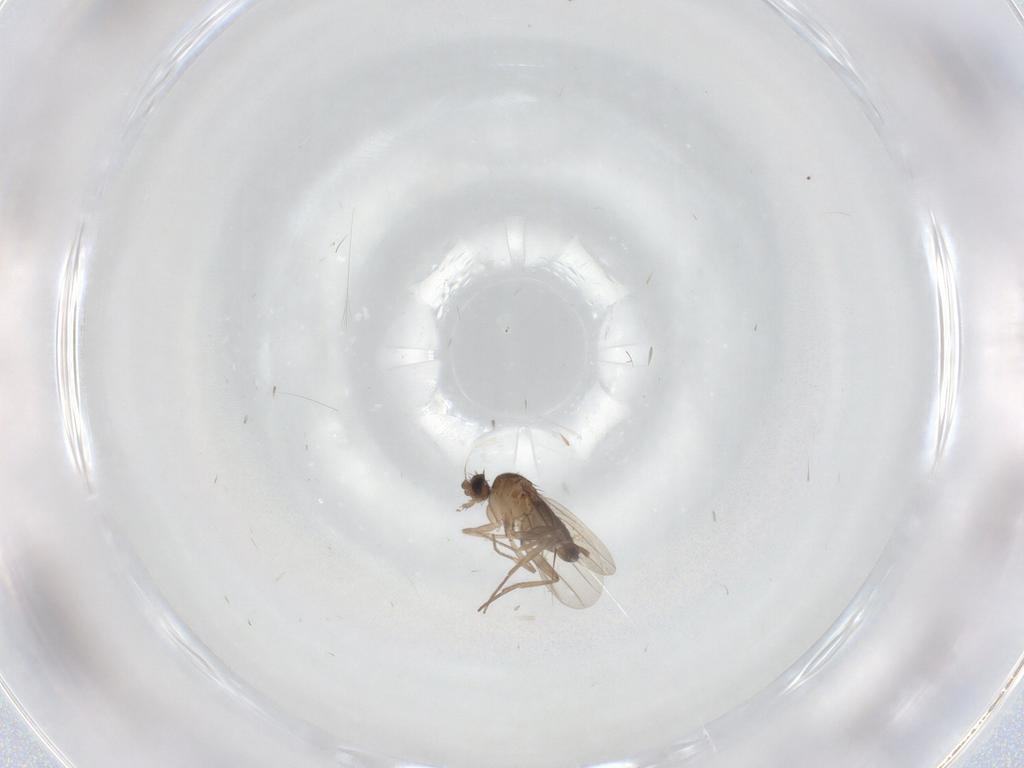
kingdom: Animalia
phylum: Arthropoda
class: Insecta
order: Diptera
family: Phoridae
